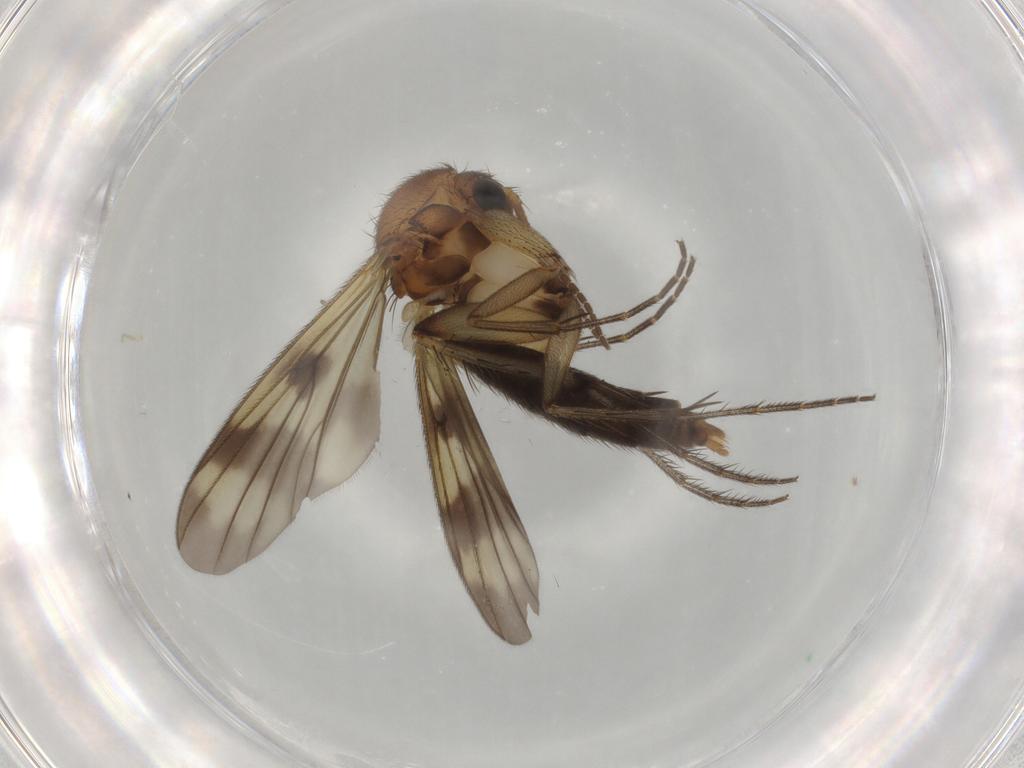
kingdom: Animalia
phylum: Arthropoda
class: Insecta
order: Diptera
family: Mycetophilidae
